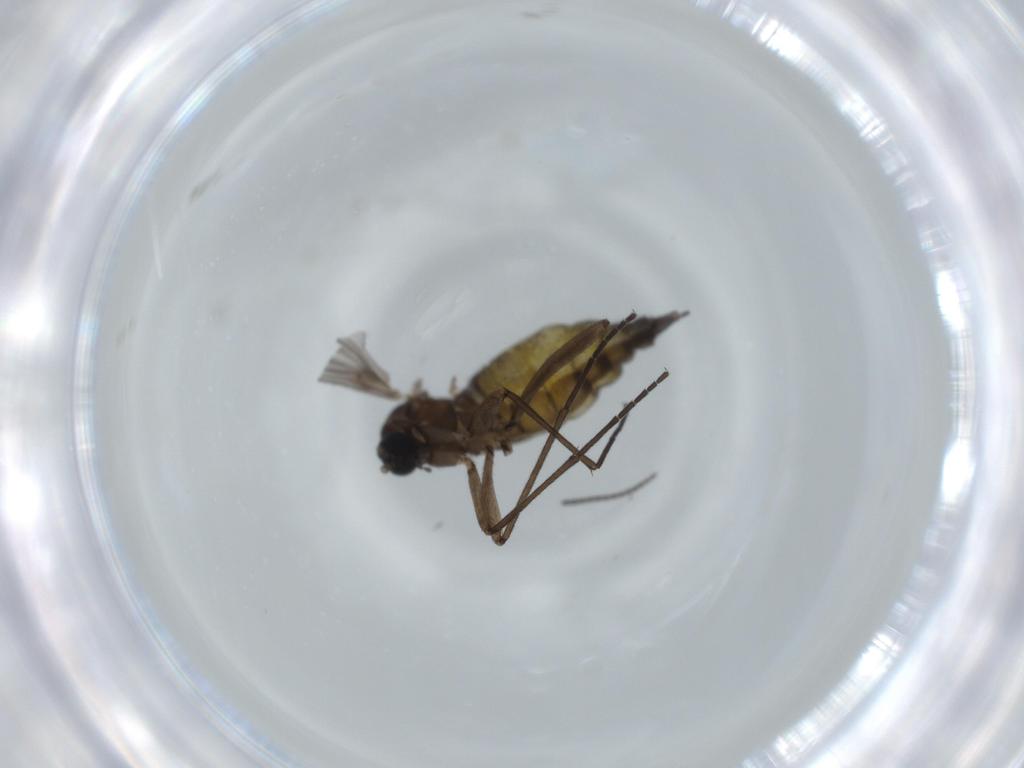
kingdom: Animalia
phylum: Arthropoda
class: Insecta
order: Diptera
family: Sciaridae
